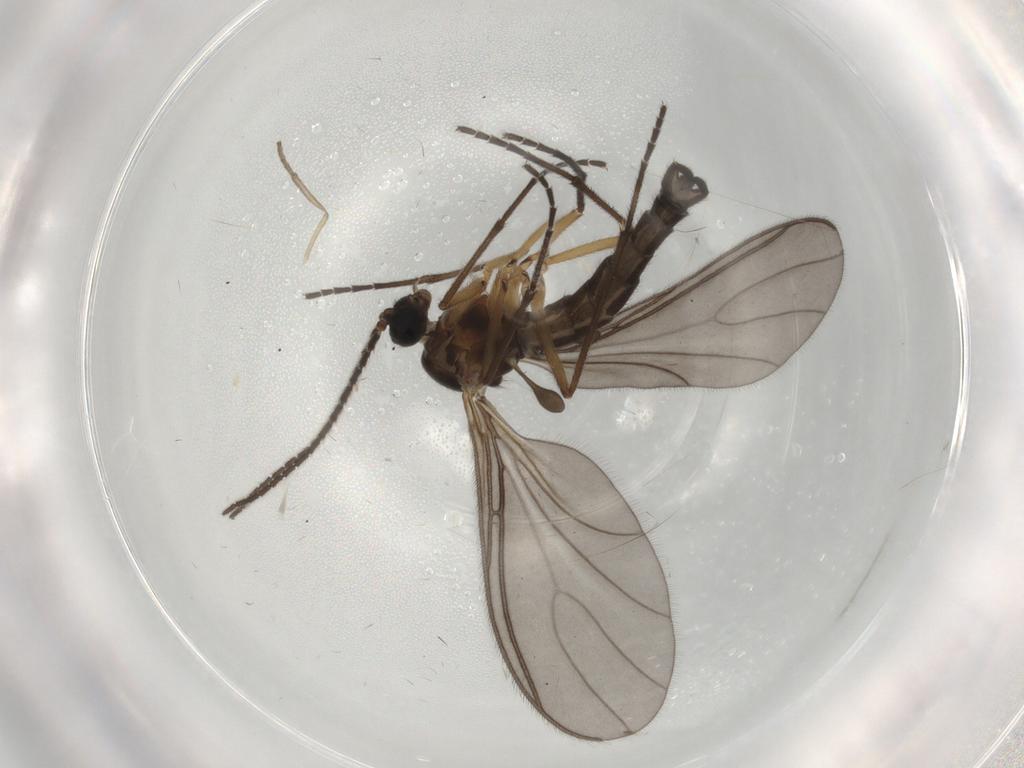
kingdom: Animalia
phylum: Arthropoda
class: Insecta
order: Diptera
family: Sciaridae
